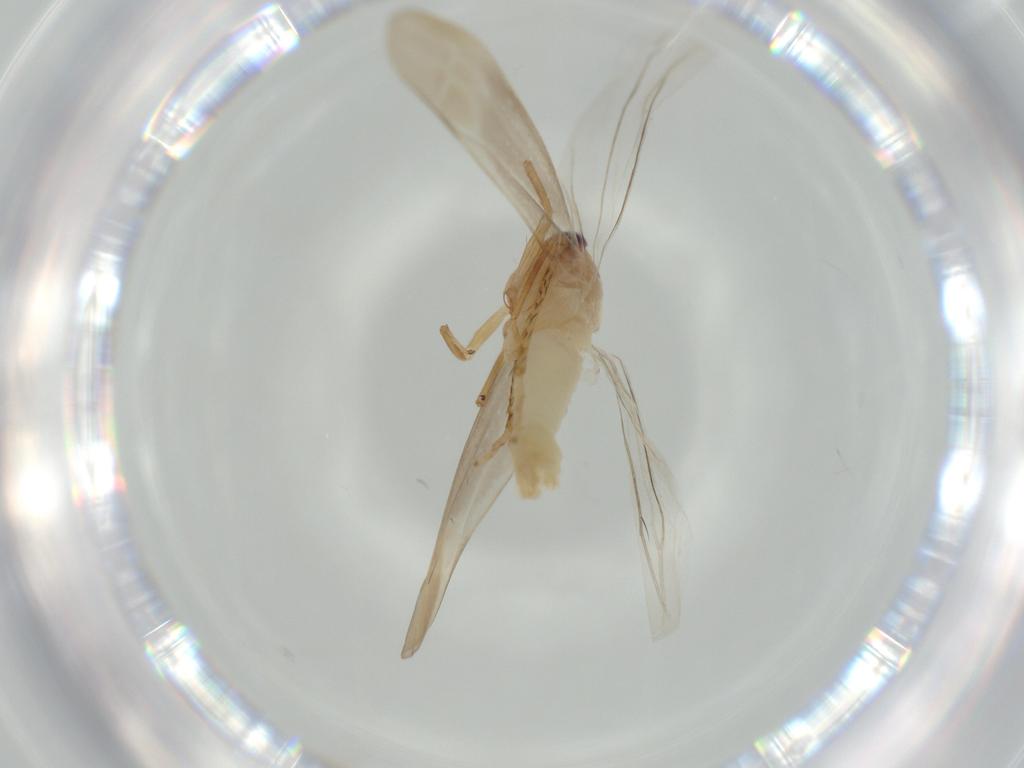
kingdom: Animalia
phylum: Arthropoda
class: Insecta
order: Hemiptera
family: Cicadellidae
